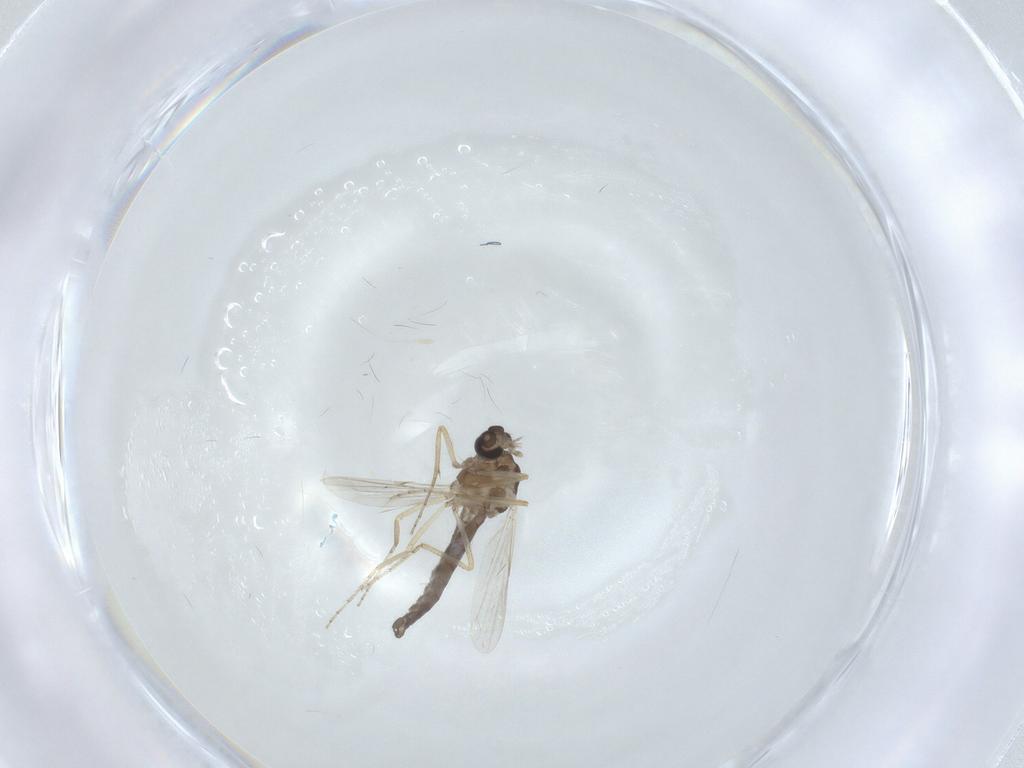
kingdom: Animalia
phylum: Arthropoda
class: Insecta
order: Diptera
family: Ceratopogonidae
